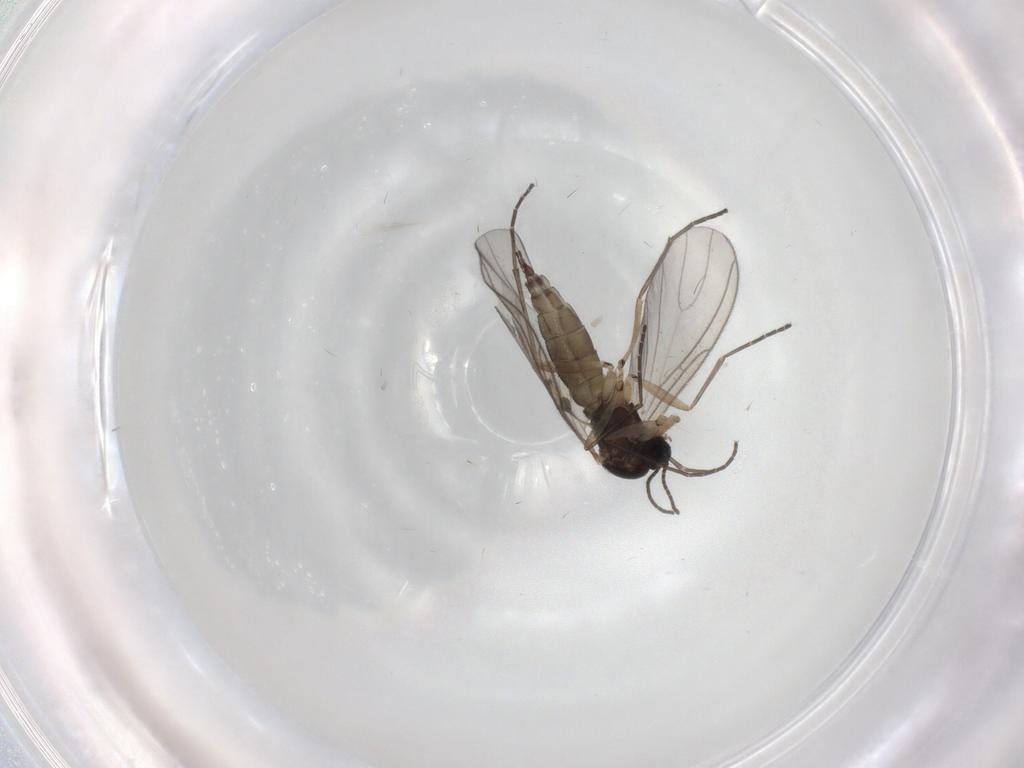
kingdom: Animalia
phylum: Arthropoda
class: Insecta
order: Diptera
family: Sciaridae
